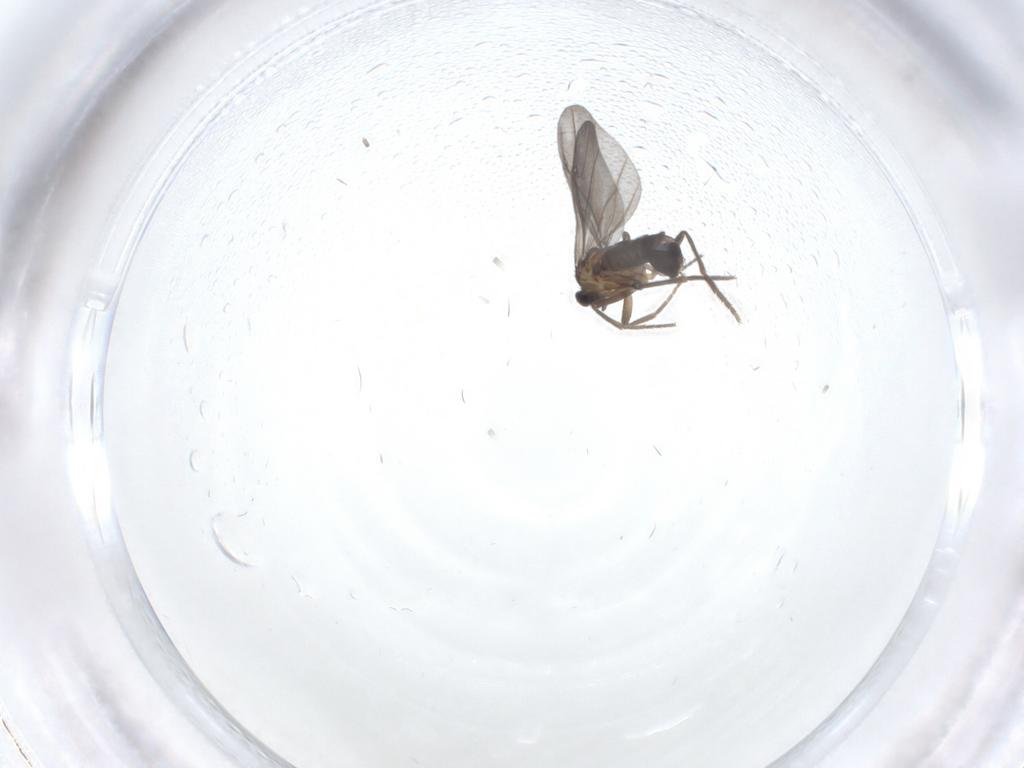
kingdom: Animalia
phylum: Arthropoda
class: Insecta
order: Diptera
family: Phoridae
